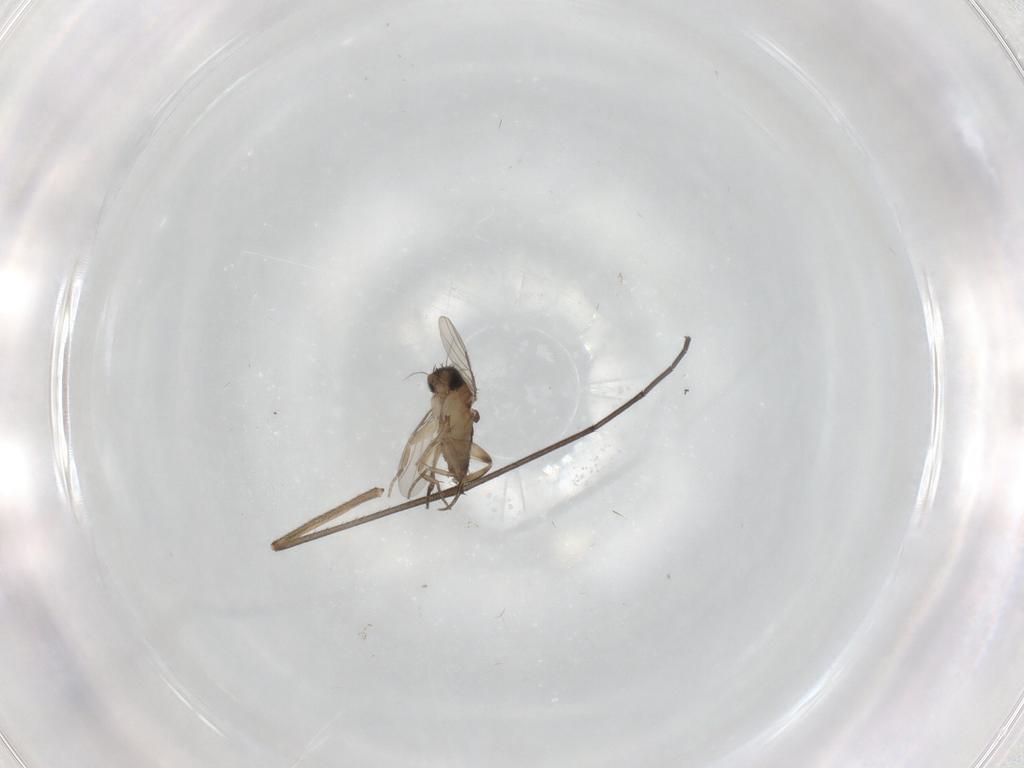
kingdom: Animalia
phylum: Arthropoda
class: Insecta
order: Diptera
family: Phoridae
